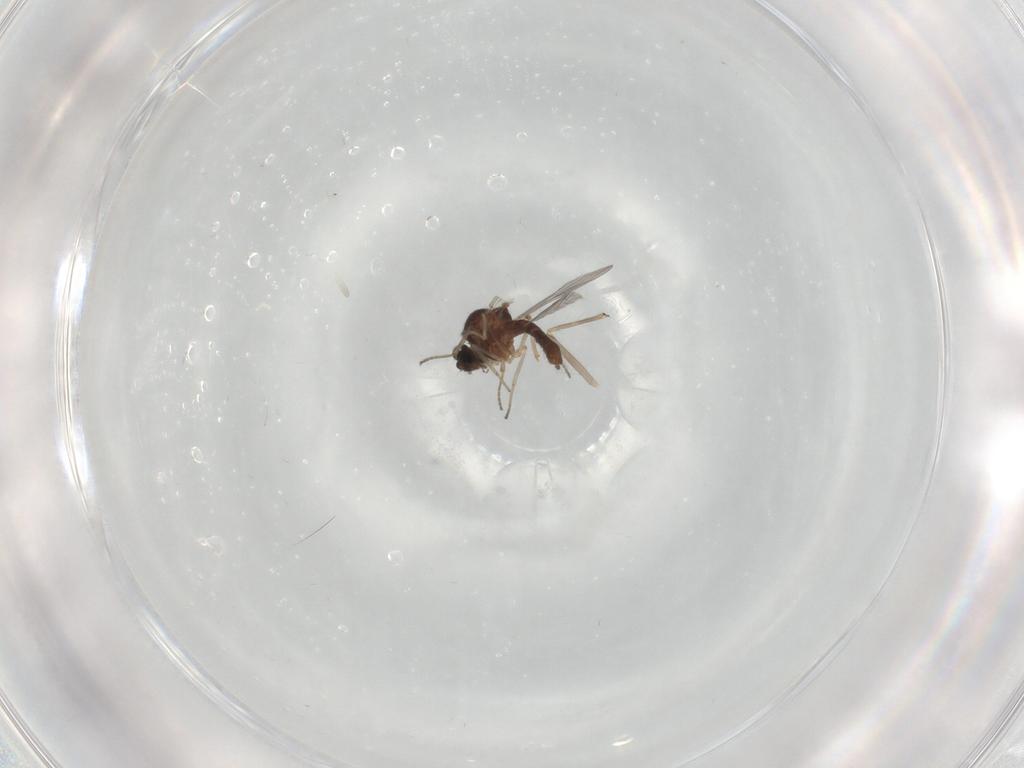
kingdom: Animalia
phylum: Arthropoda
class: Insecta
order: Diptera
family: Ceratopogonidae
